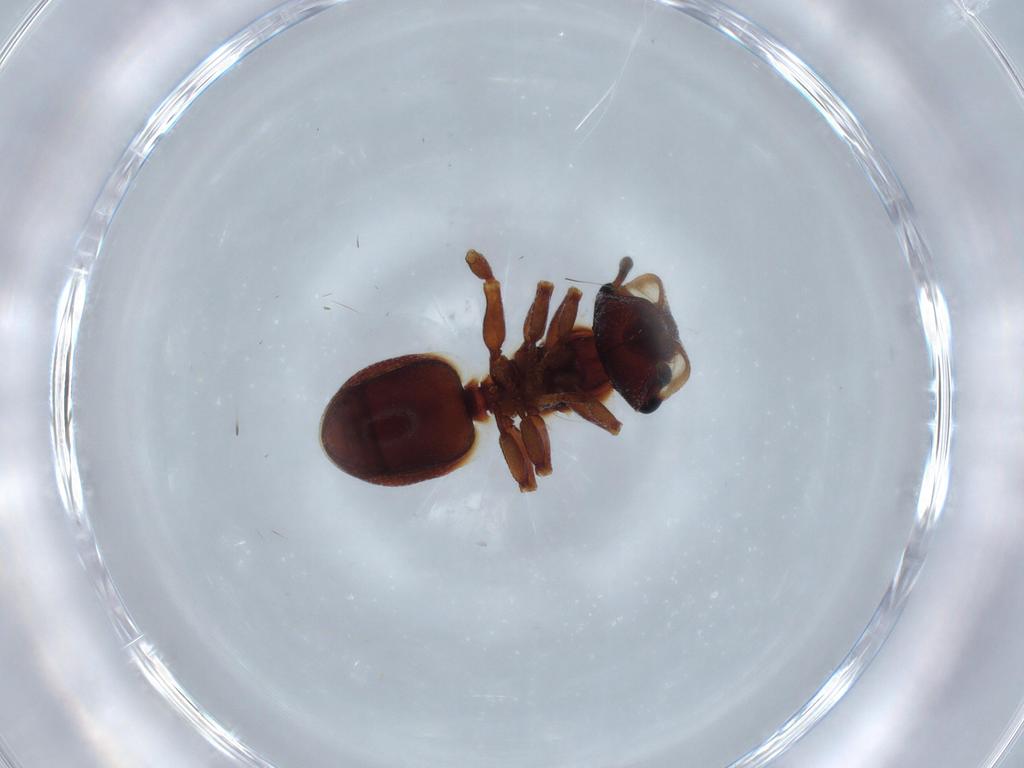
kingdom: Animalia
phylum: Arthropoda
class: Insecta
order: Hymenoptera
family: Formicidae
